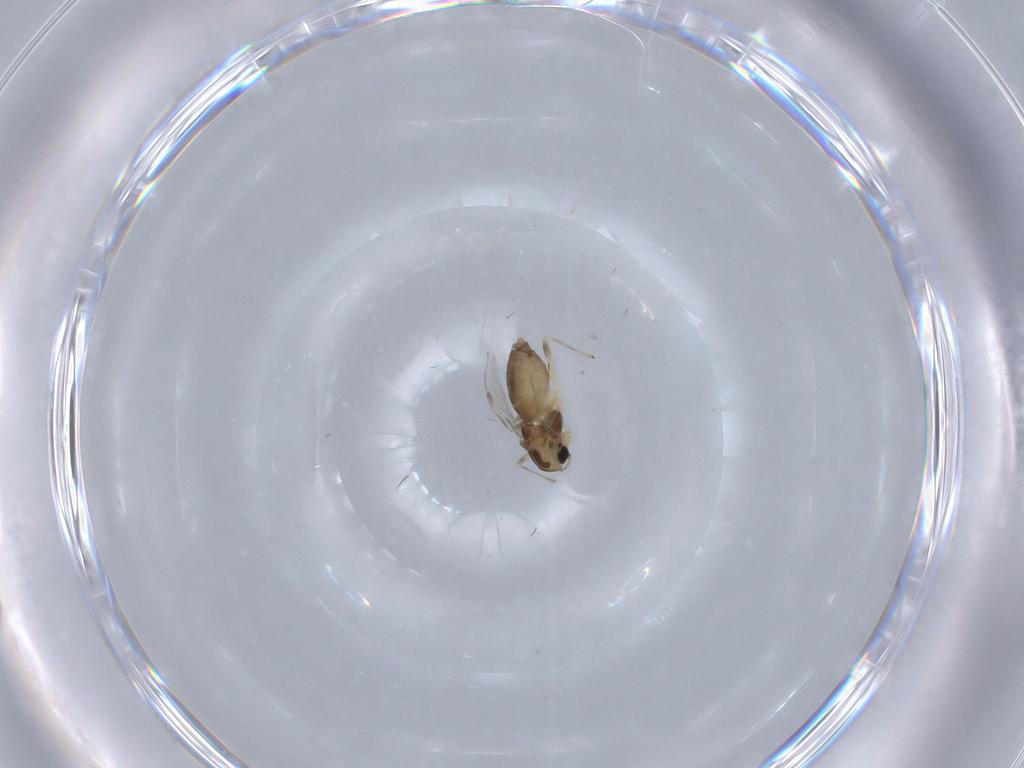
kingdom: Animalia
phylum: Arthropoda
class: Insecta
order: Diptera
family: Chironomidae
